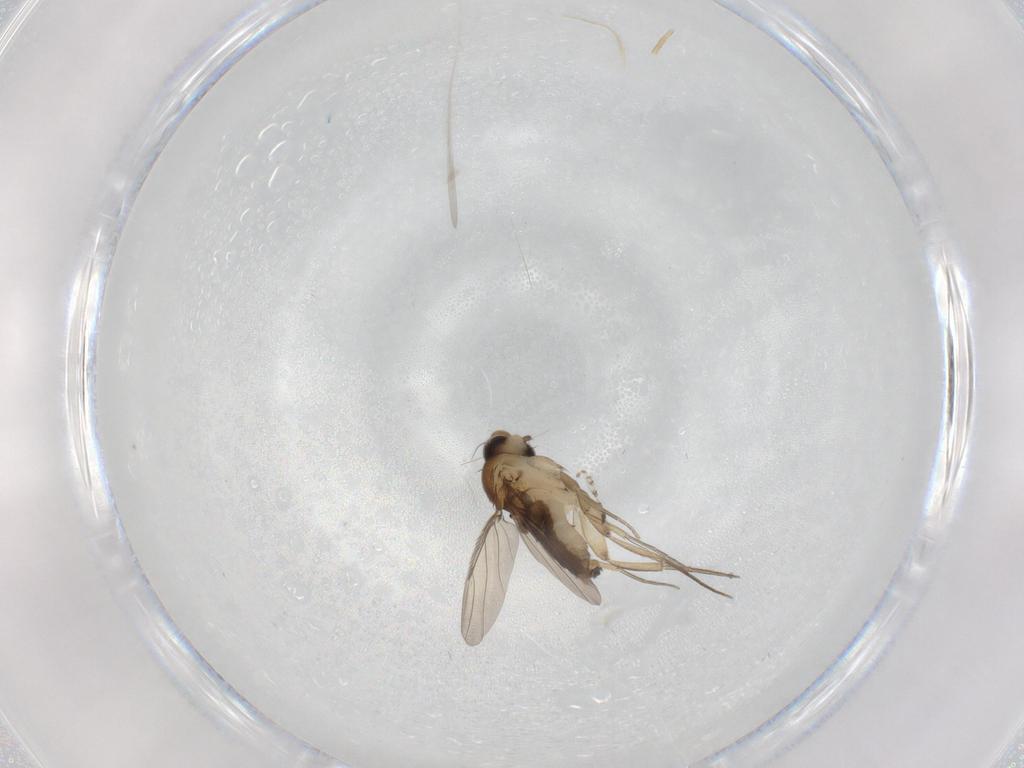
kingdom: Animalia
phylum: Arthropoda
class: Insecta
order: Diptera
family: Phoridae
